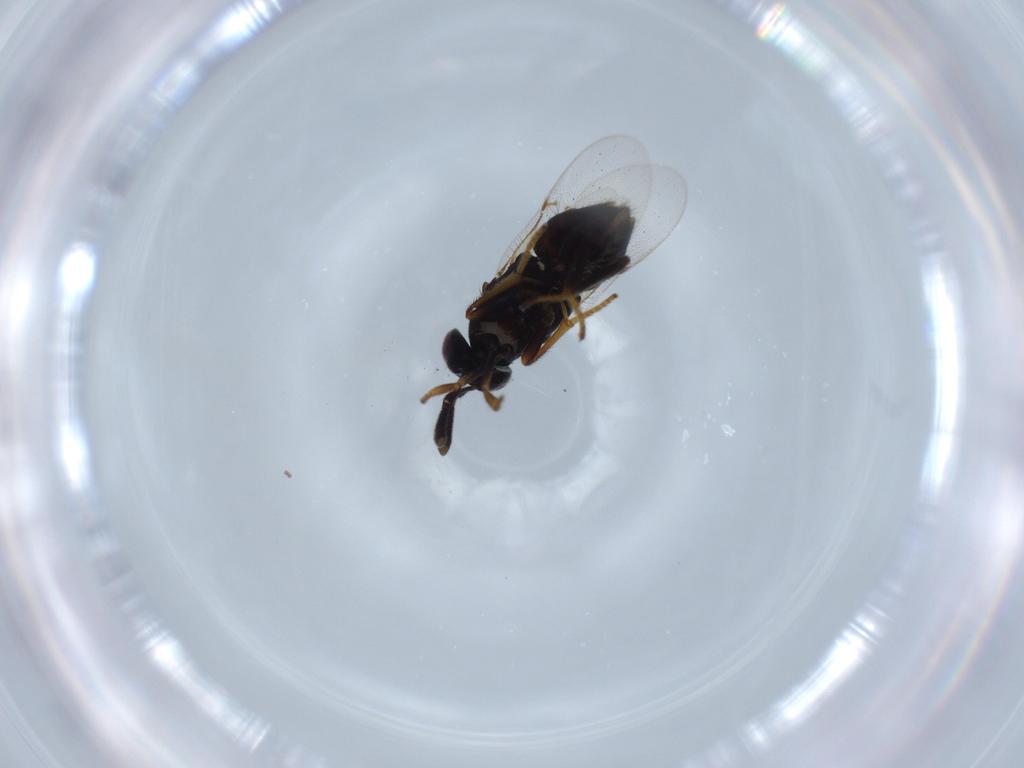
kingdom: Animalia
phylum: Arthropoda
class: Insecta
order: Hymenoptera
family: Encyrtidae
